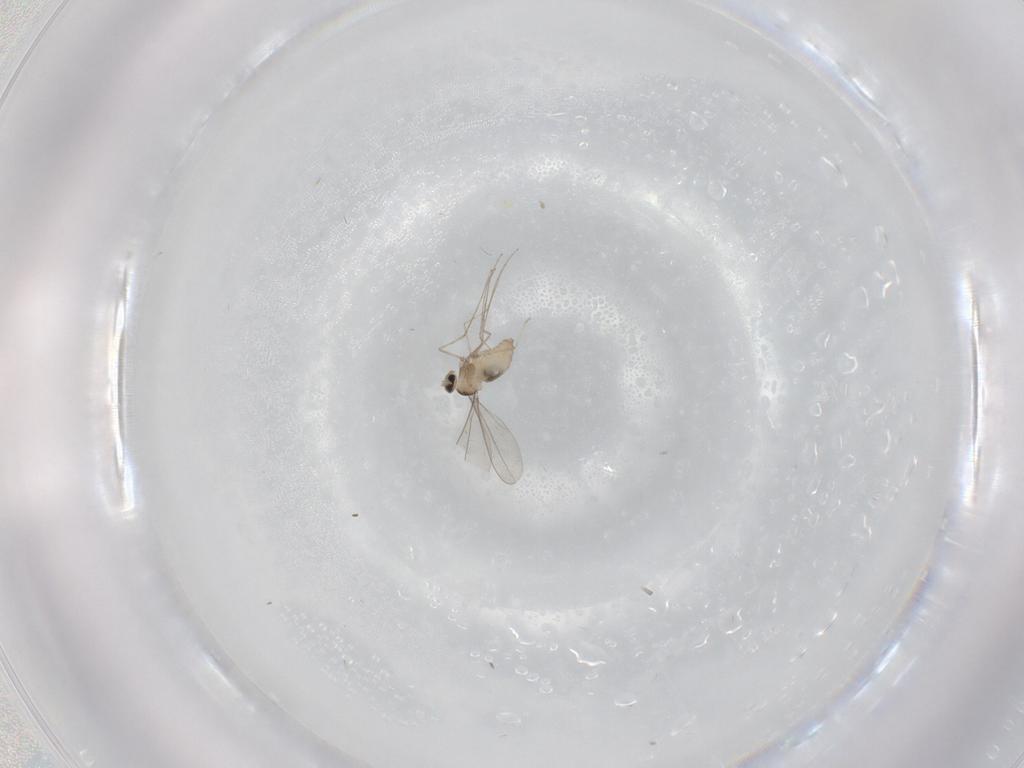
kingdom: Animalia
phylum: Arthropoda
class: Insecta
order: Diptera
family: Cecidomyiidae
